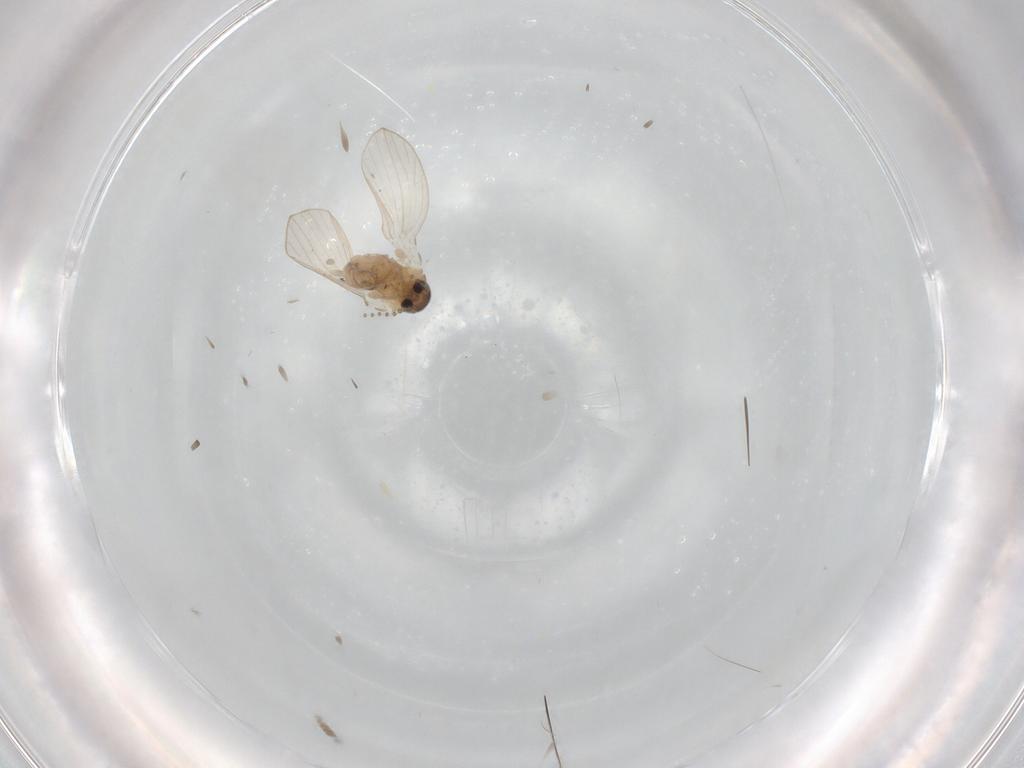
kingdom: Animalia
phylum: Arthropoda
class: Insecta
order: Diptera
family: Psychodidae
